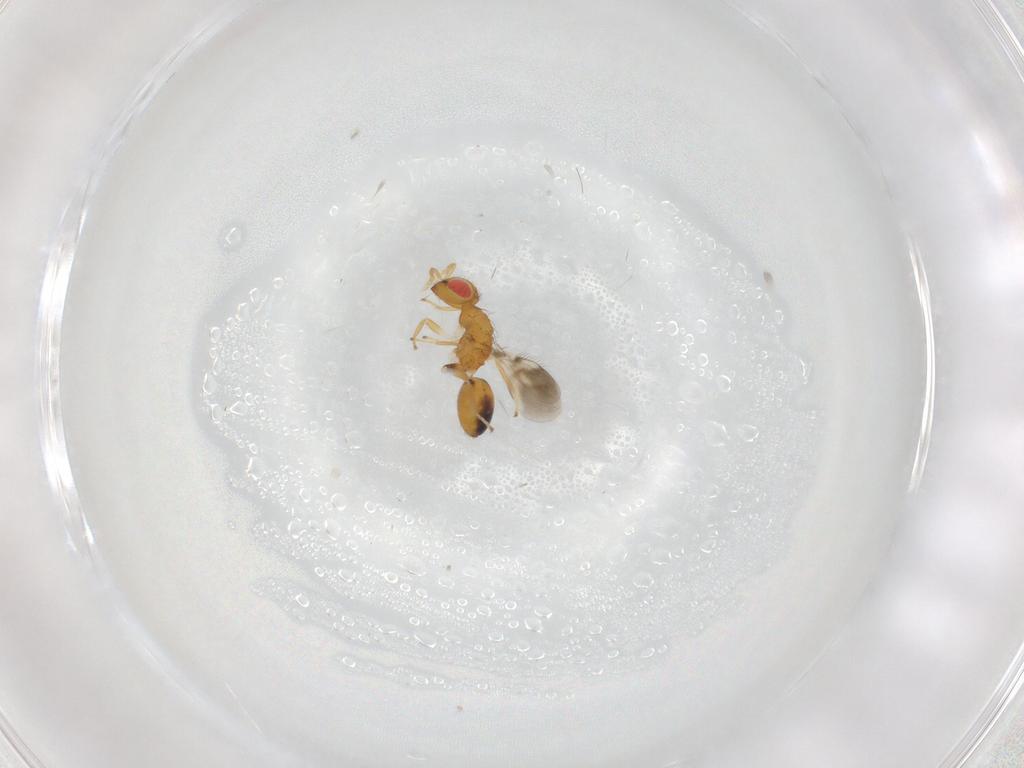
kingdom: Animalia
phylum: Arthropoda
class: Insecta
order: Hymenoptera
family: Eulophidae
